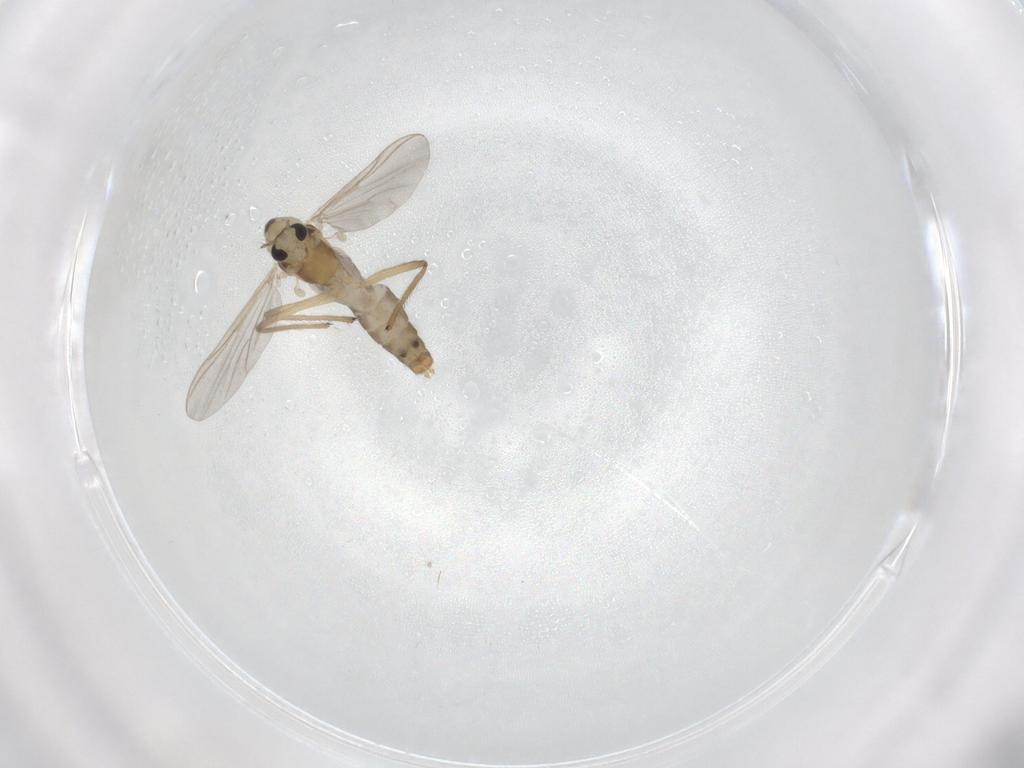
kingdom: Animalia
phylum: Arthropoda
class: Insecta
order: Diptera
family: Chironomidae
